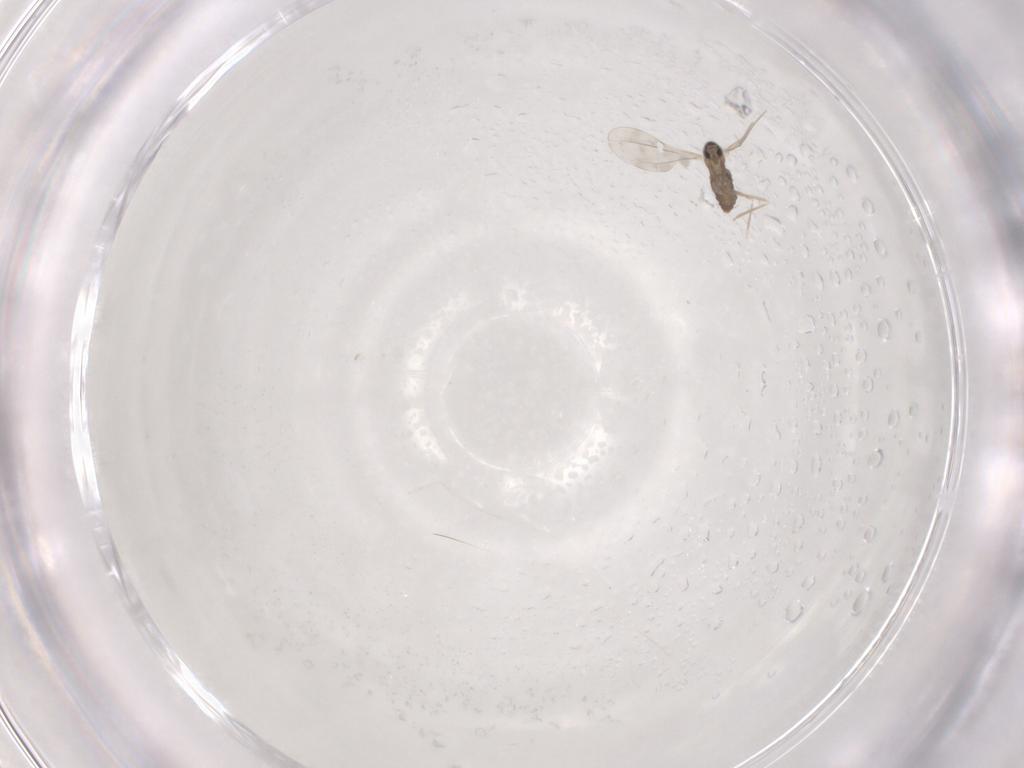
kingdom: Animalia
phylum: Arthropoda
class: Insecta
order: Diptera
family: Cecidomyiidae
